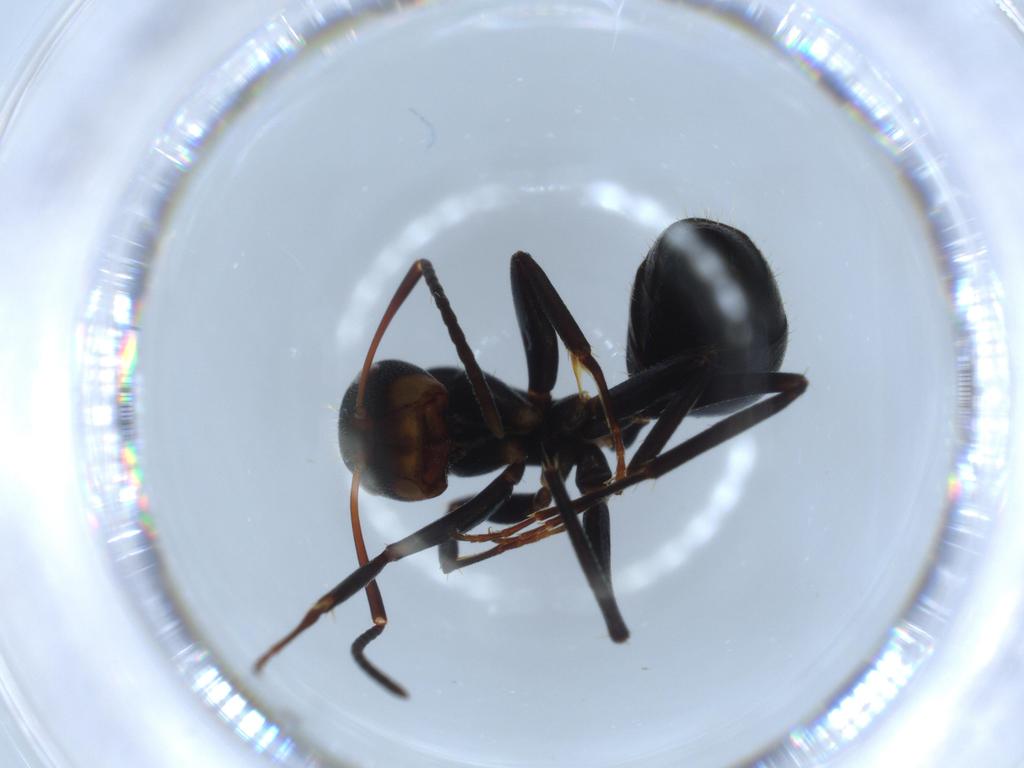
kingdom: Animalia
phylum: Arthropoda
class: Insecta
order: Hymenoptera
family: Formicidae
